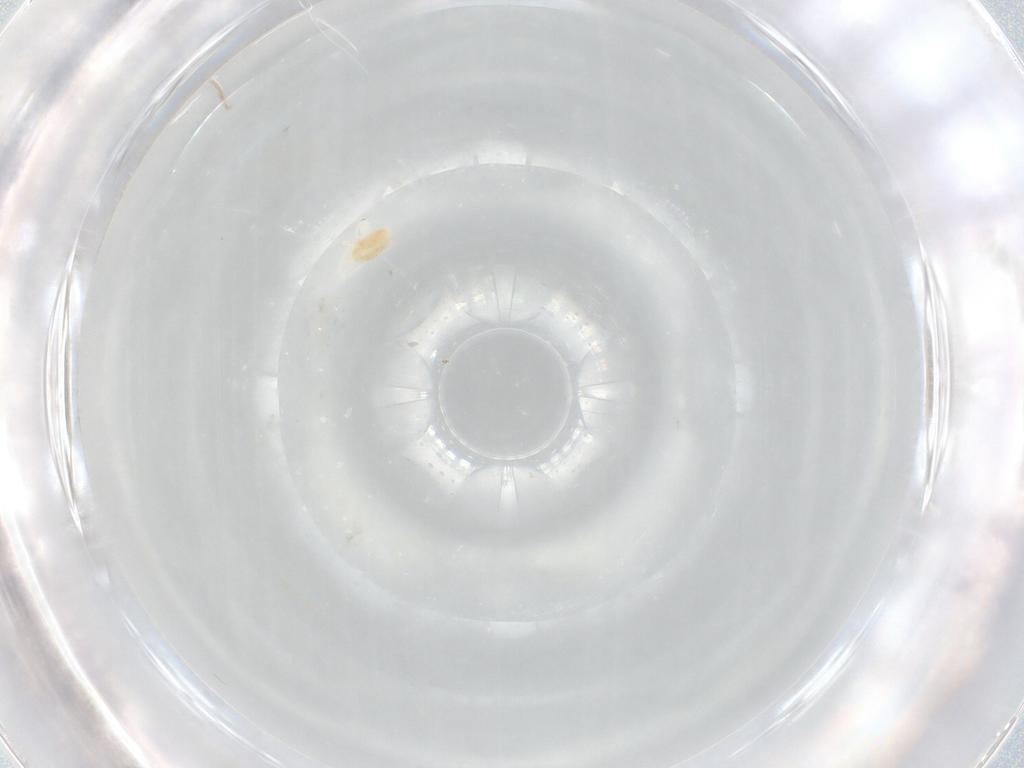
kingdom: Animalia
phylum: Arthropoda
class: Arachnida
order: Trombidiformes
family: Eupodidae
